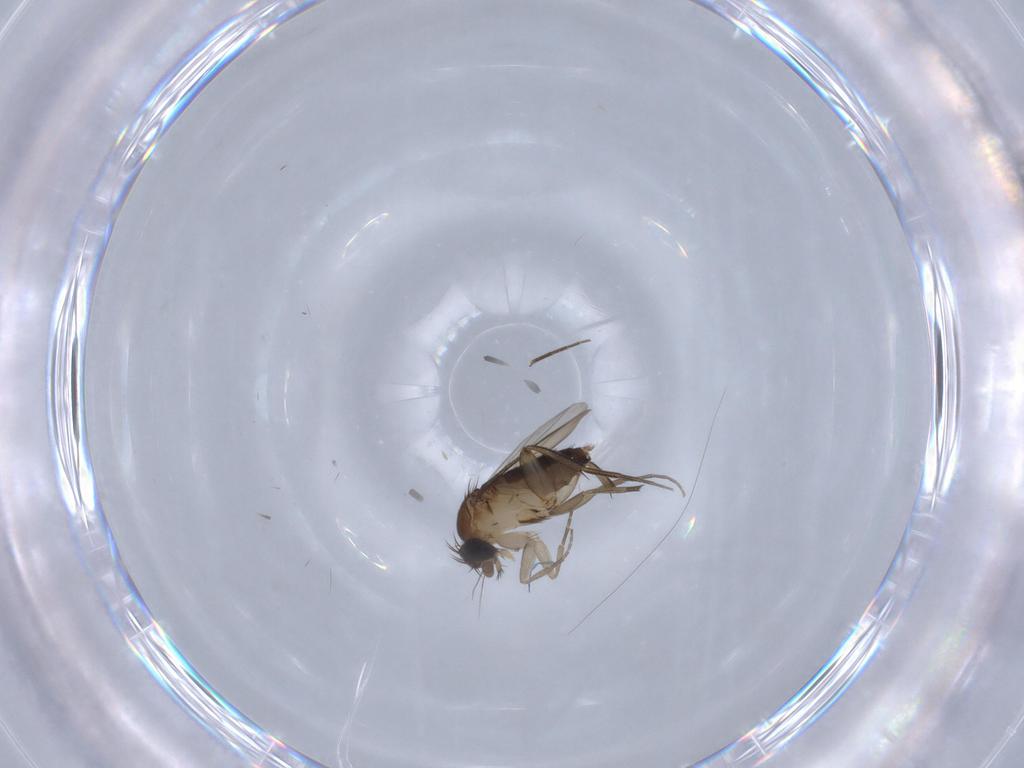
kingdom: Animalia
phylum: Arthropoda
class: Insecta
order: Diptera
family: Phoridae
